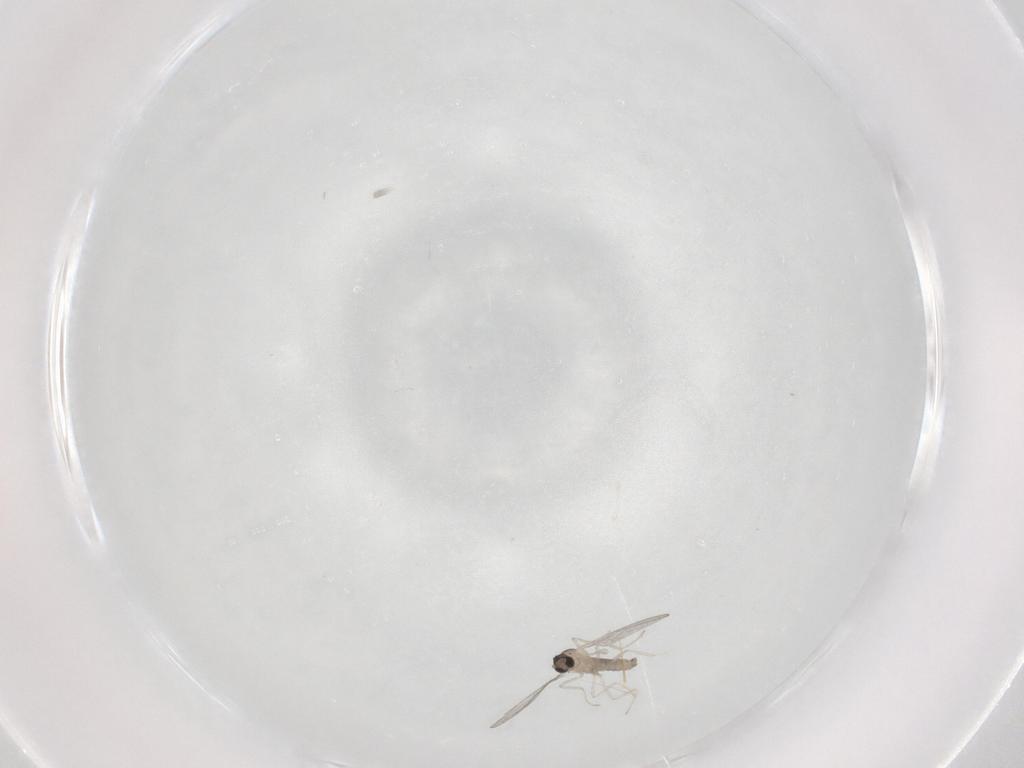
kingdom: Animalia
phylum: Arthropoda
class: Insecta
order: Diptera
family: Cecidomyiidae
